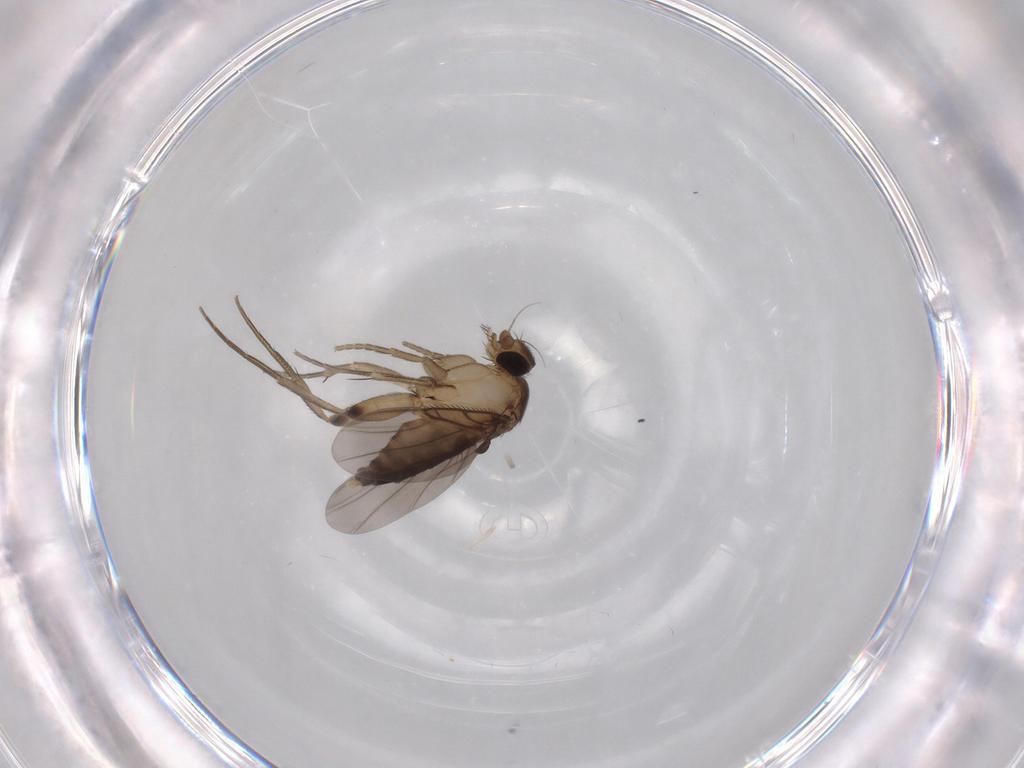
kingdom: Animalia
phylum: Arthropoda
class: Insecta
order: Diptera
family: Phoridae
